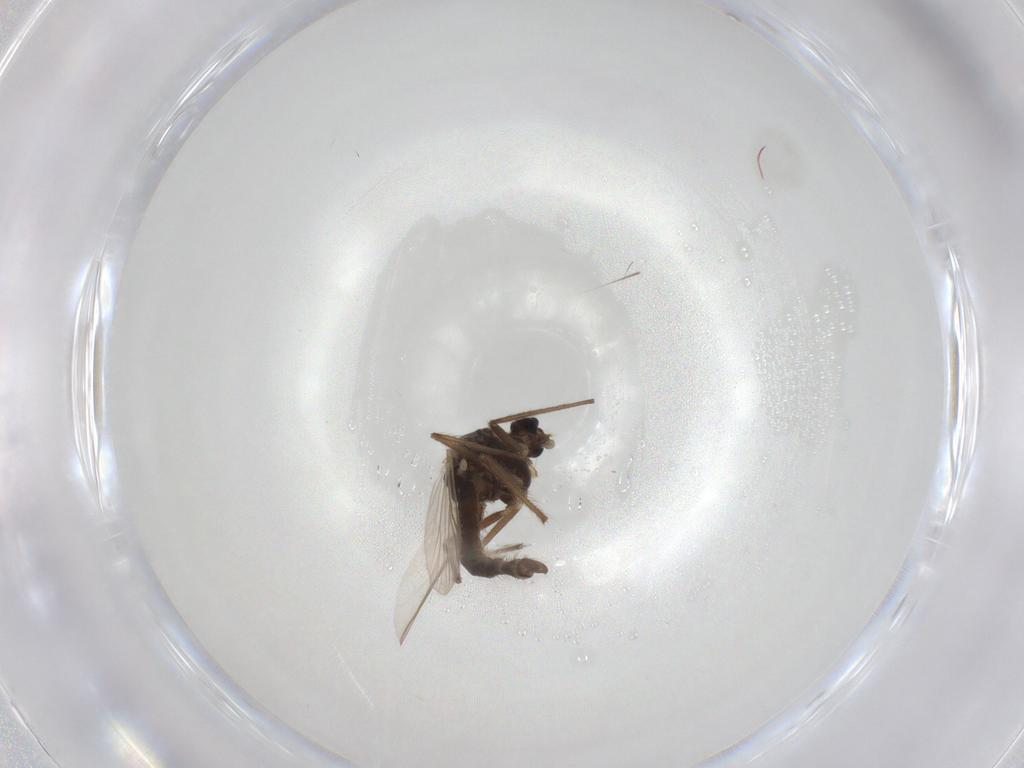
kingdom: Animalia
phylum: Arthropoda
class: Insecta
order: Diptera
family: Chironomidae
